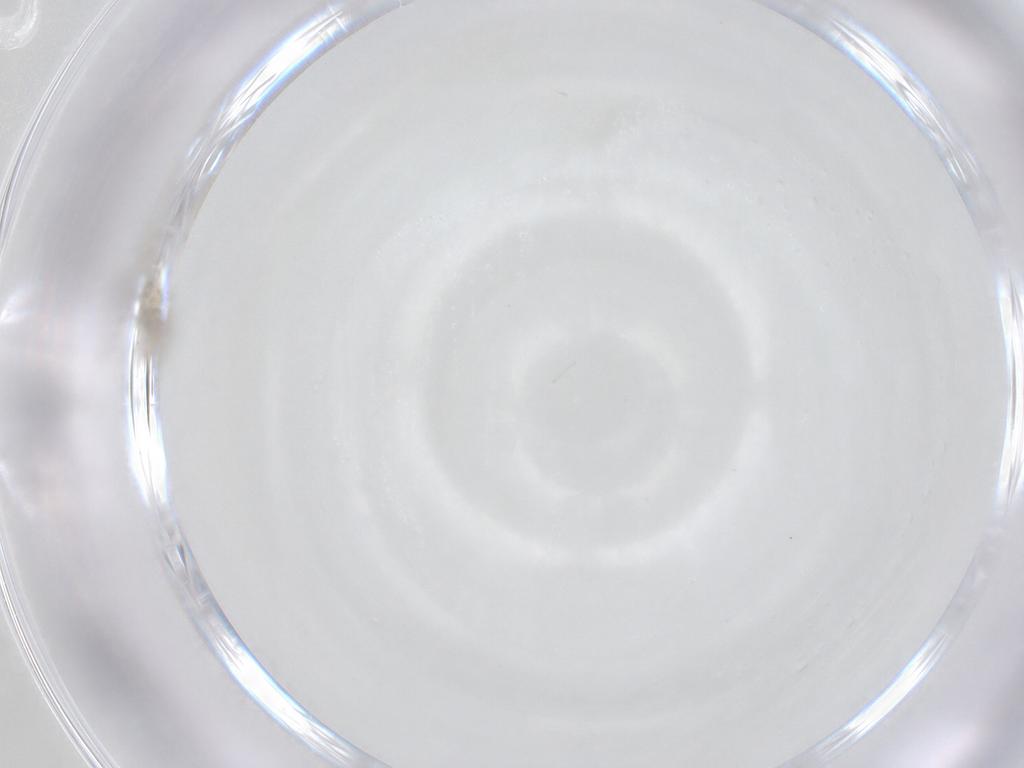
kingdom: Animalia
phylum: Arthropoda
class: Insecta
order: Diptera
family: Cecidomyiidae
